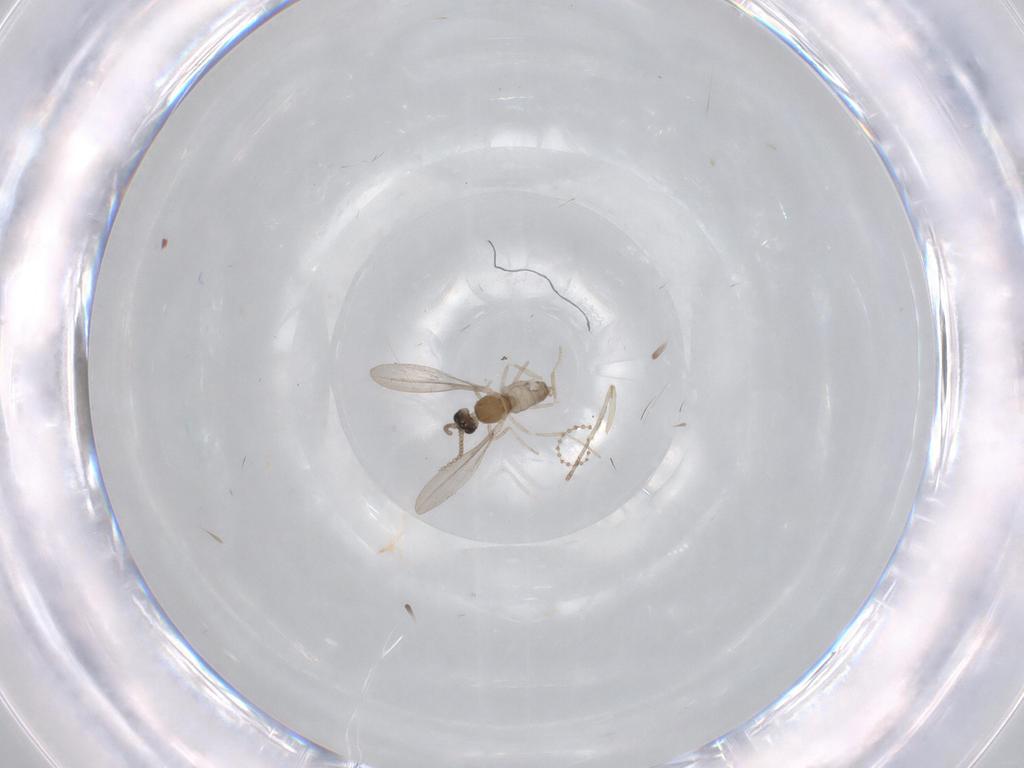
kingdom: Animalia
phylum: Arthropoda
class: Insecta
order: Diptera
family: Cecidomyiidae
